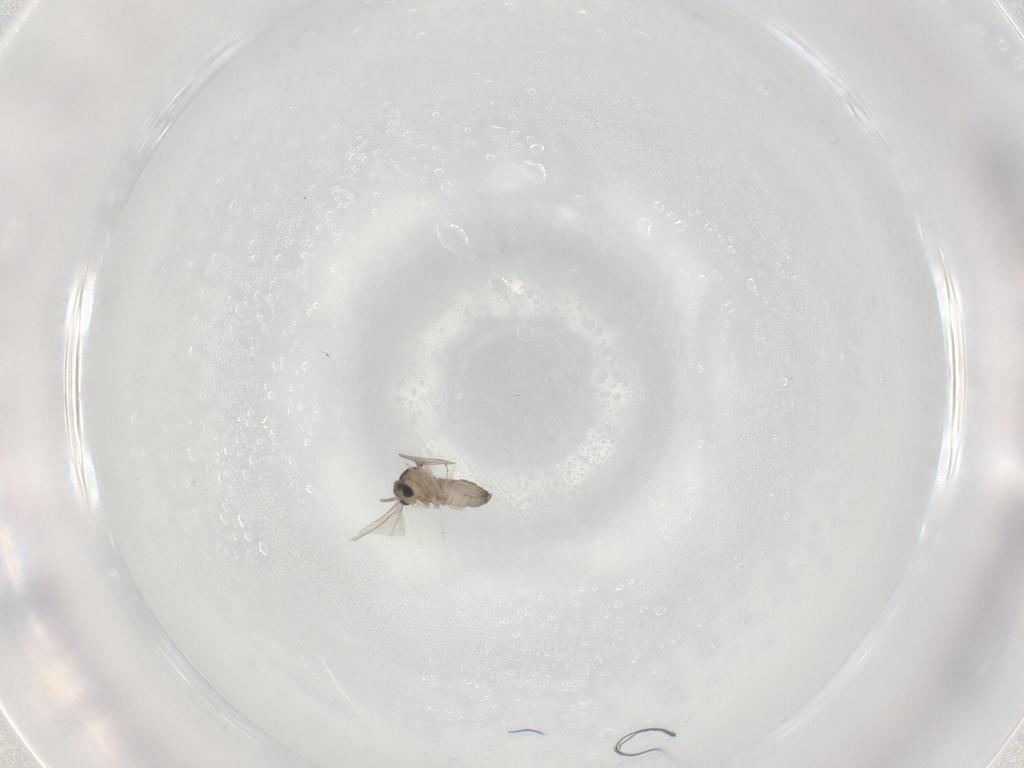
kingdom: Animalia
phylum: Arthropoda
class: Insecta
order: Diptera
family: Cecidomyiidae
